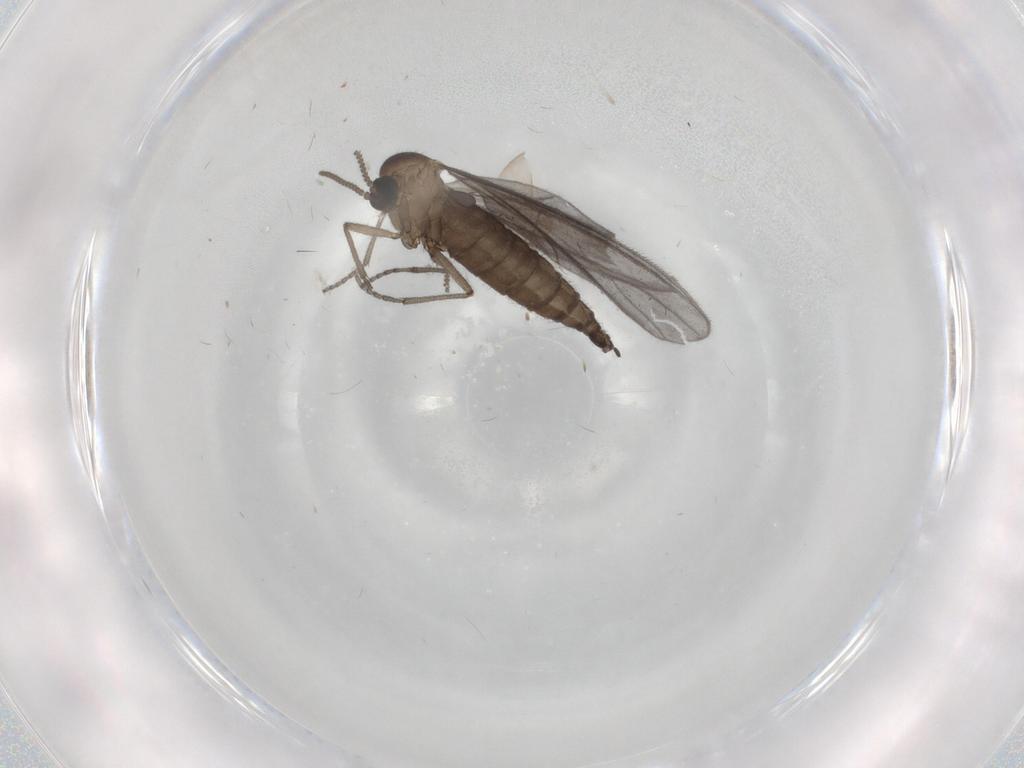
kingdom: Animalia
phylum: Arthropoda
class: Insecta
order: Diptera
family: Sciaridae
